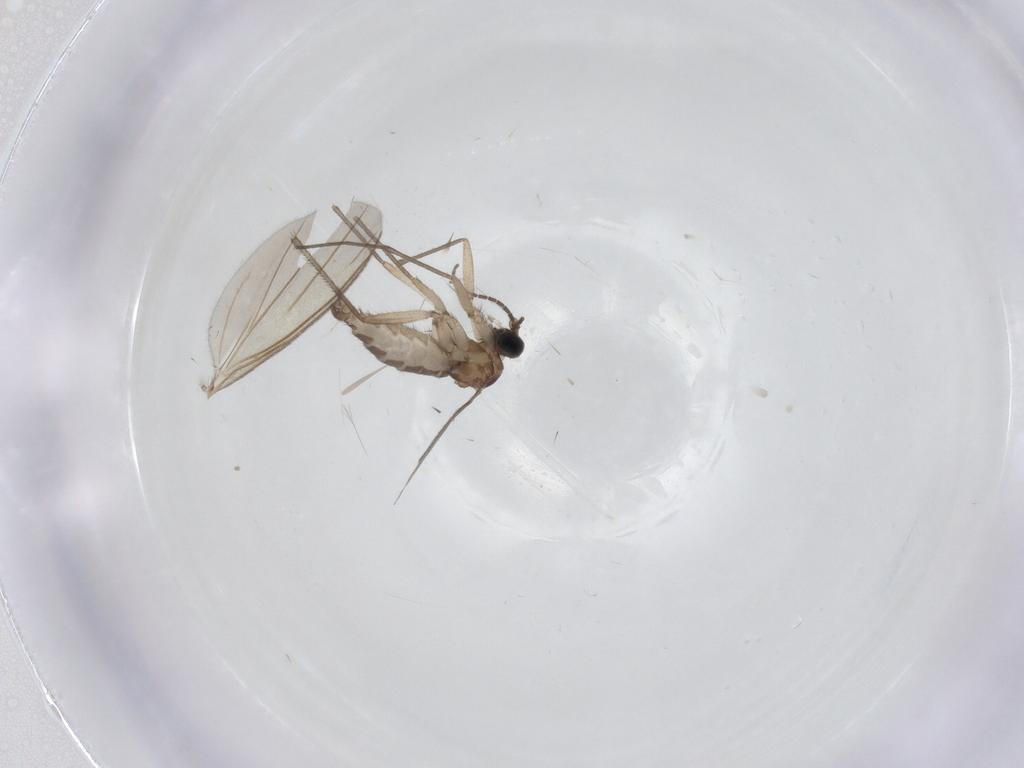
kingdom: Animalia
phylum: Arthropoda
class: Insecta
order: Diptera
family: Sciaridae
